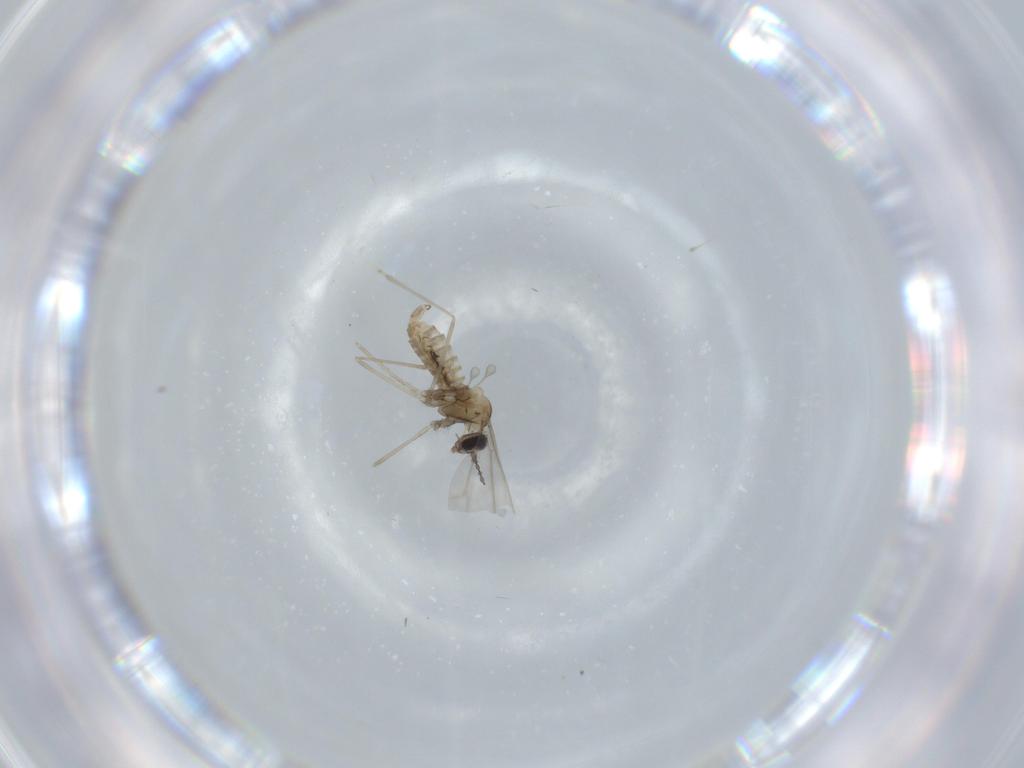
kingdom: Animalia
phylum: Arthropoda
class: Insecta
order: Diptera
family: Cecidomyiidae
